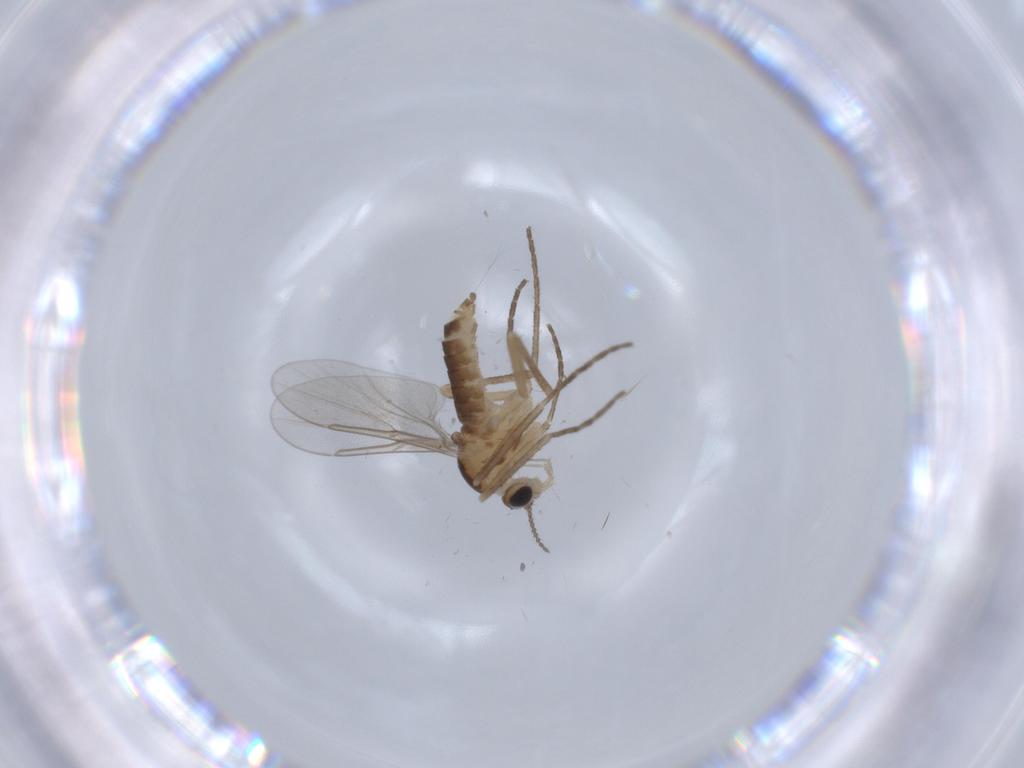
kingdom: Animalia
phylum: Arthropoda
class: Insecta
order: Diptera
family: Cecidomyiidae
